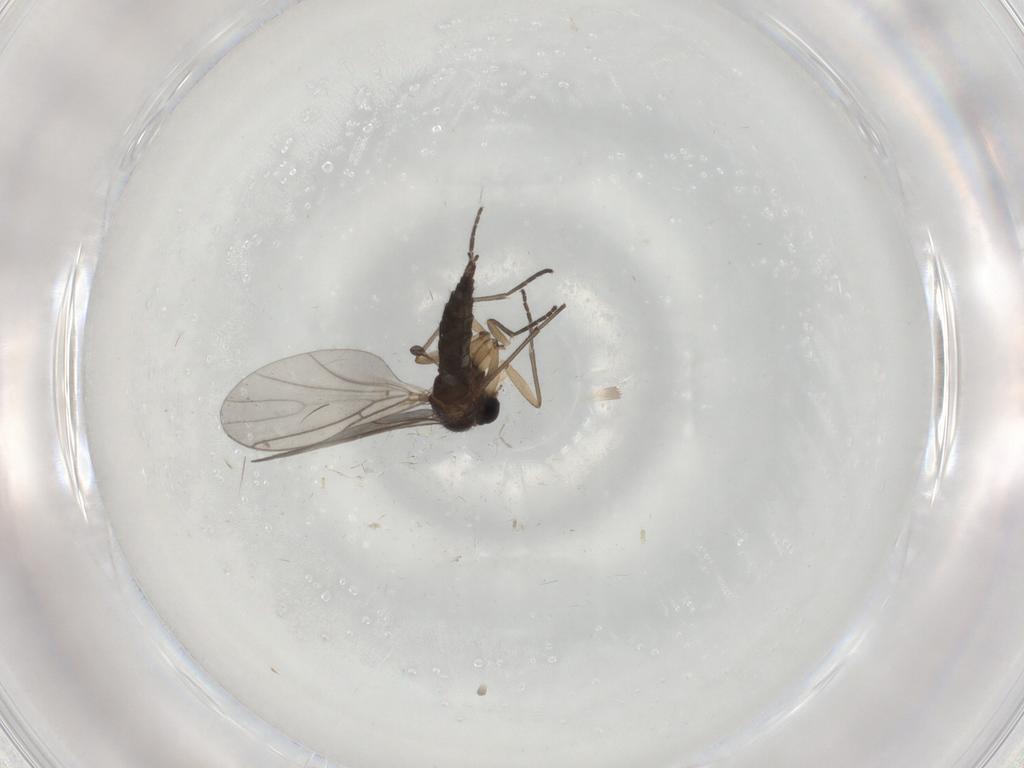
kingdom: Animalia
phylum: Arthropoda
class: Insecta
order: Diptera
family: Sciaridae
